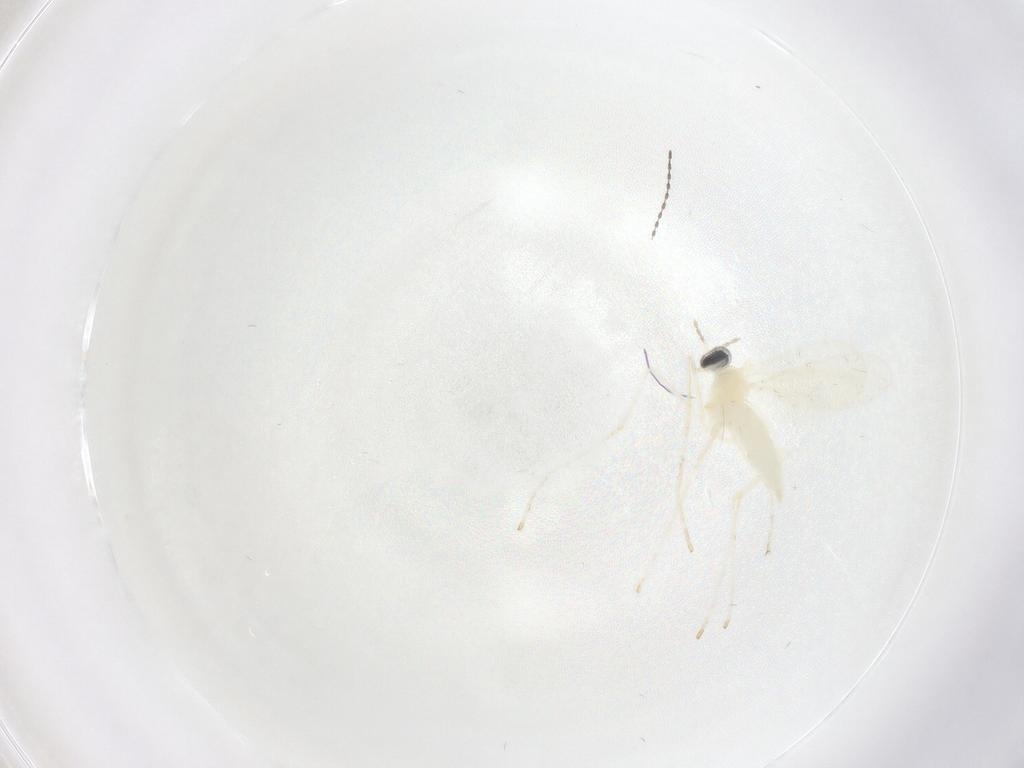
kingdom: Animalia
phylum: Arthropoda
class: Insecta
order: Diptera
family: Cecidomyiidae
